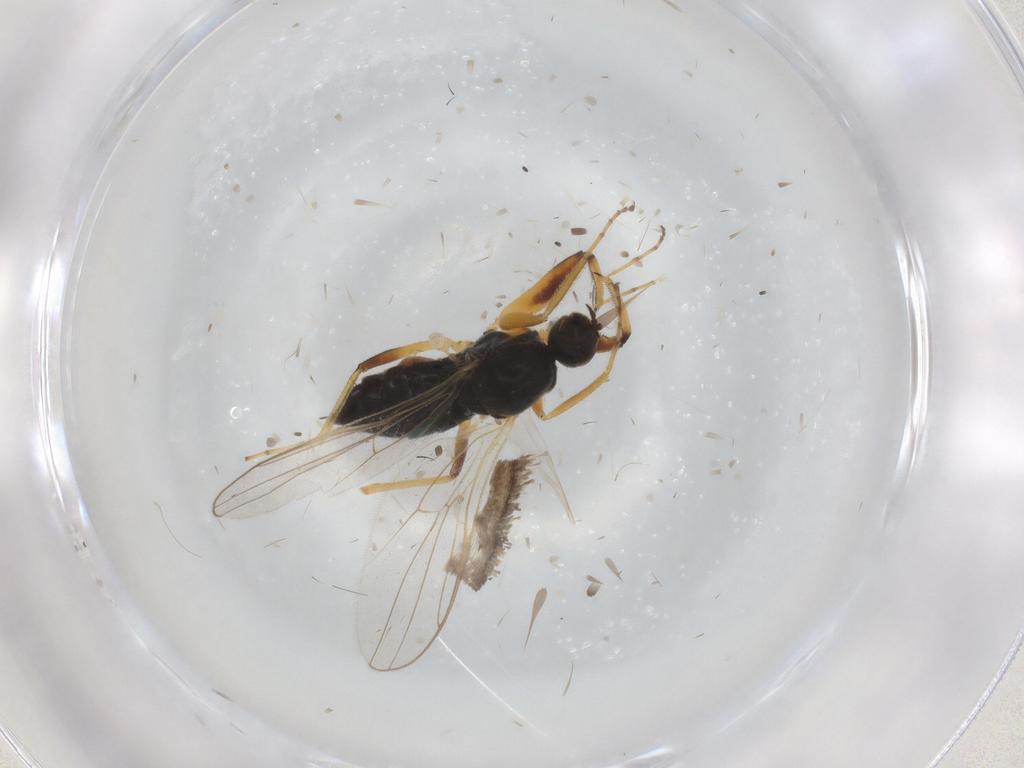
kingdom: Animalia
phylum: Arthropoda
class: Insecta
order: Diptera
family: Hybotidae
